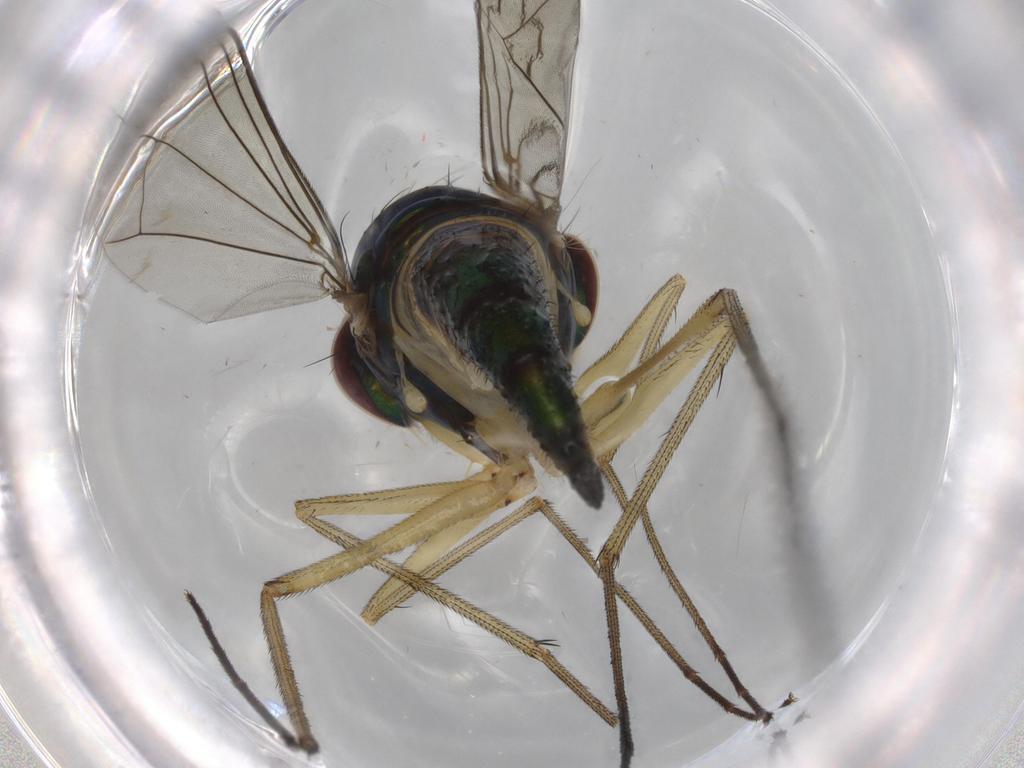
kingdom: Animalia
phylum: Arthropoda
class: Insecta
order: Diptera
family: Dolichopodidae
